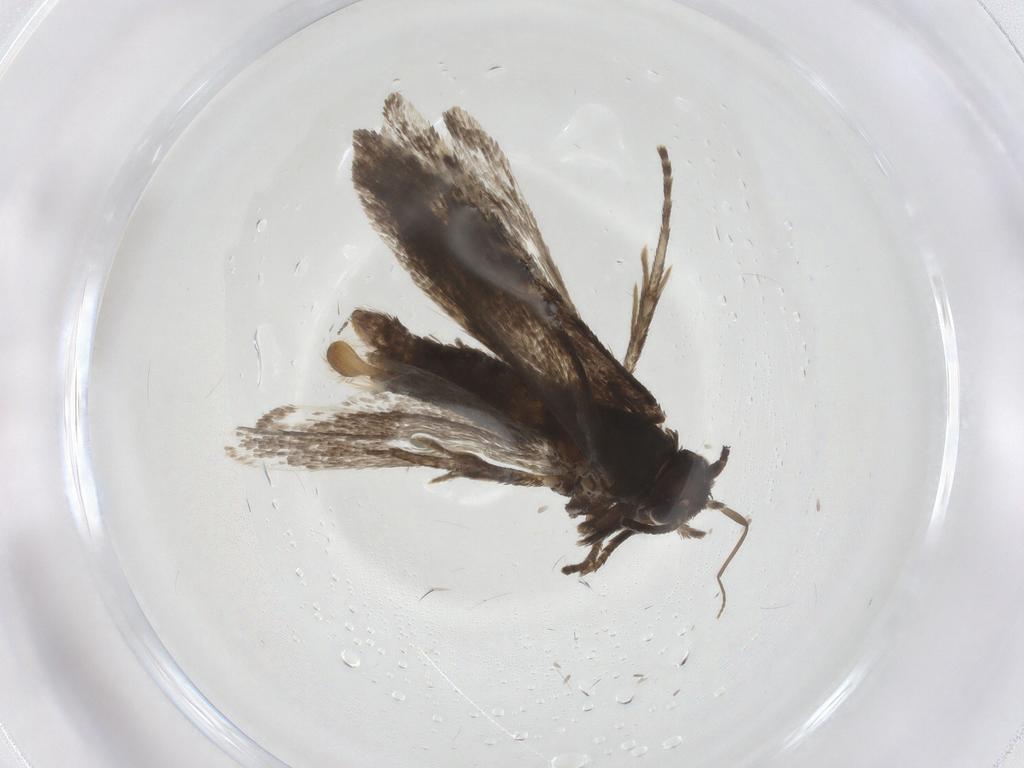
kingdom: Animalia
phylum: Arthropoda
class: Insecta
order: Lepidoptera
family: Tortricidae
